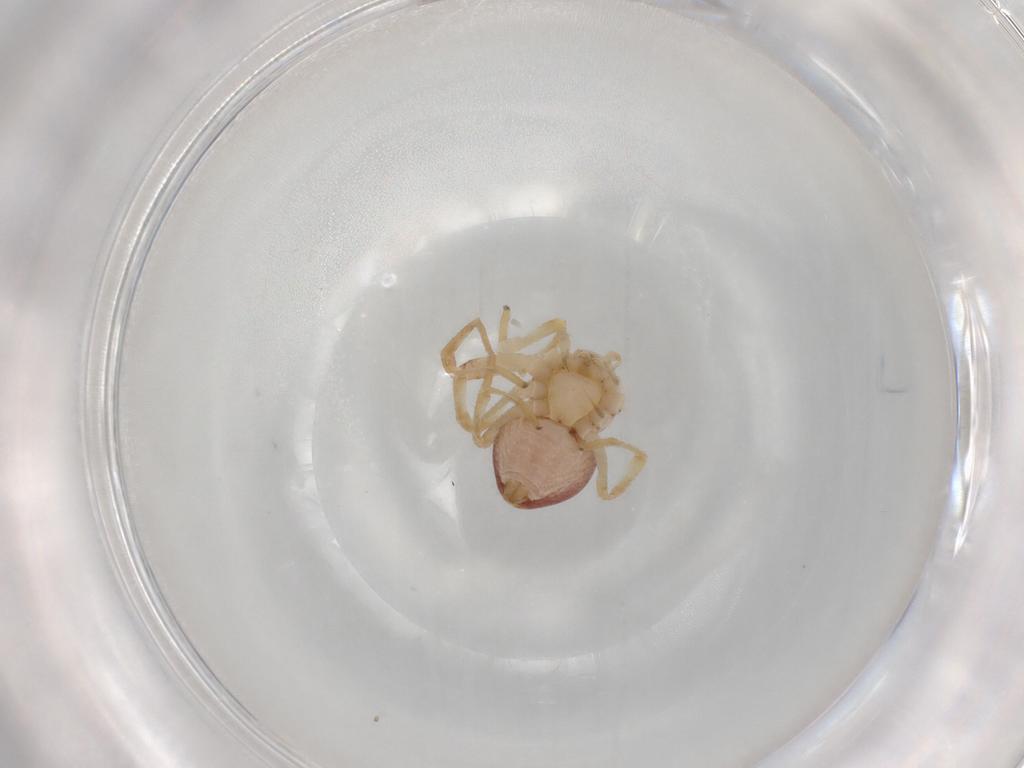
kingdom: Animalia
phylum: Arthropoda
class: Arachnida
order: Araneae
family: Philodromidae
